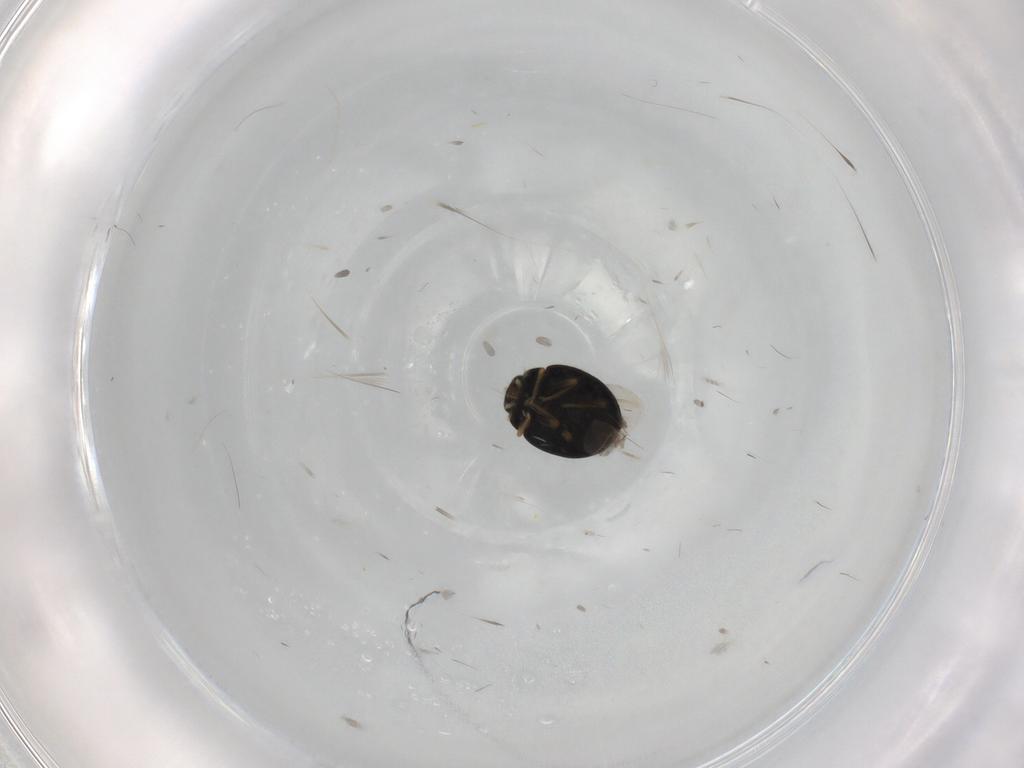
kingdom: Animalia
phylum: Arthropoda
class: Insecta
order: Coleoptera
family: Coccinellidae
